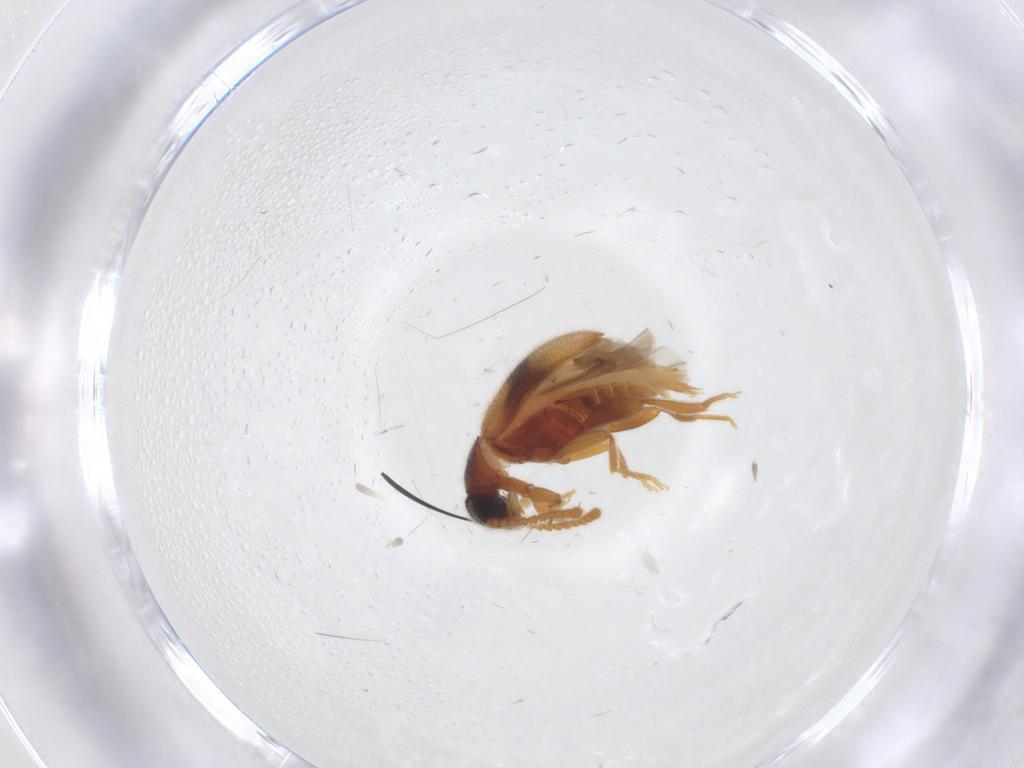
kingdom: Animalia
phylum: Arthropoda
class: Insecta
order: Coleoptera
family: Aderidae
